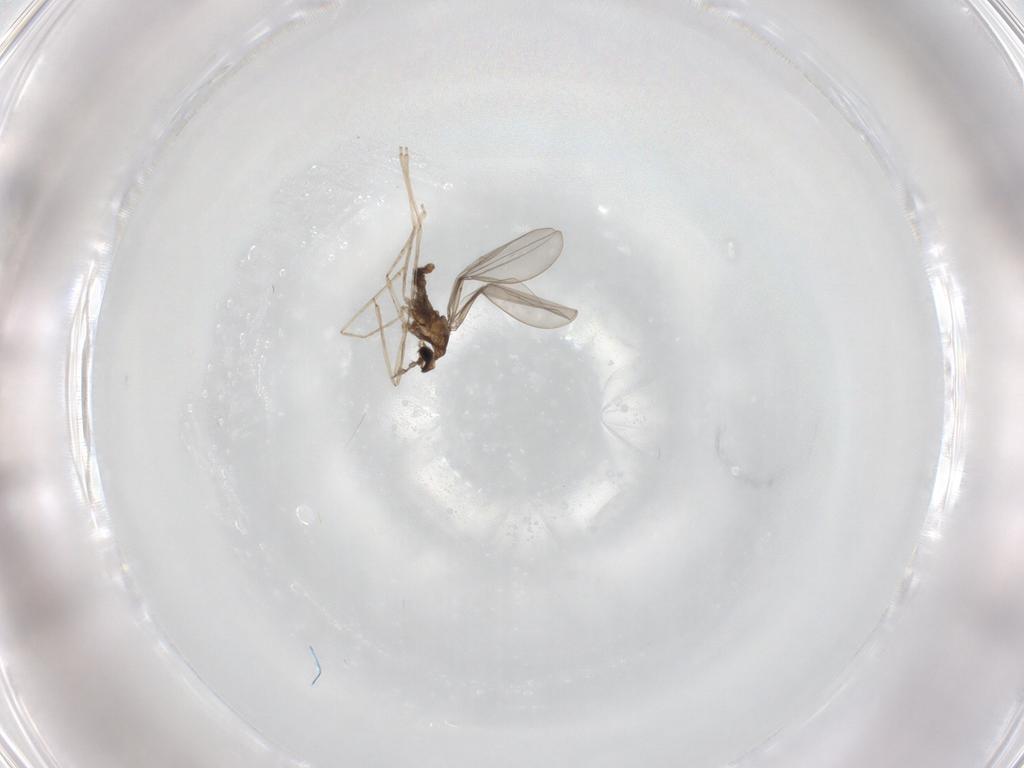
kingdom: Animalia
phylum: Arthropoda
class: Insecta
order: Diptera
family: Cecidomyiidae
